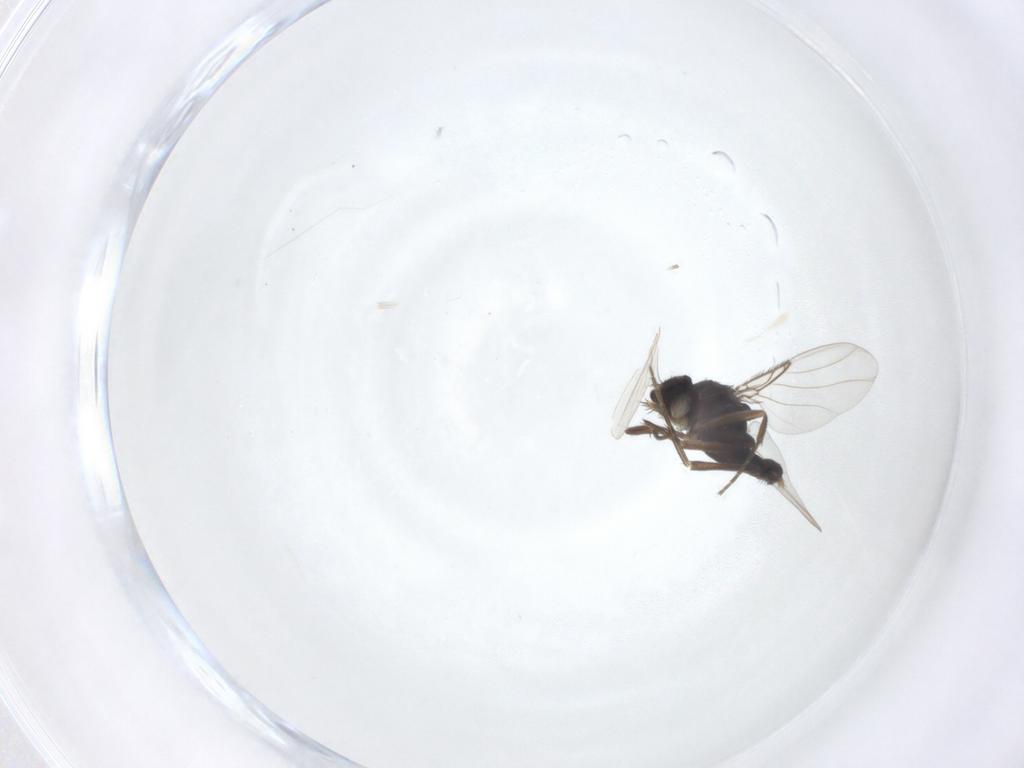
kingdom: Animalia
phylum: Arthropoda
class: Insecta
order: Diptera
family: Phoridae
